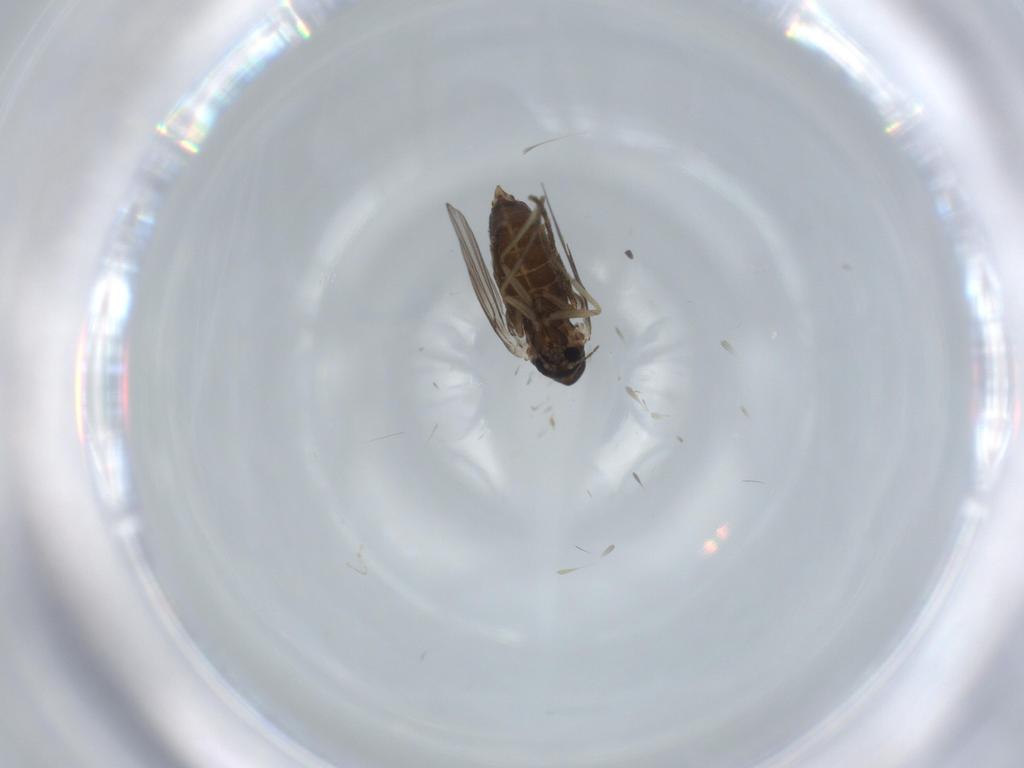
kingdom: Animalia
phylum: Arthropoda
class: Insecta
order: Diptera
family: Psychodidae
